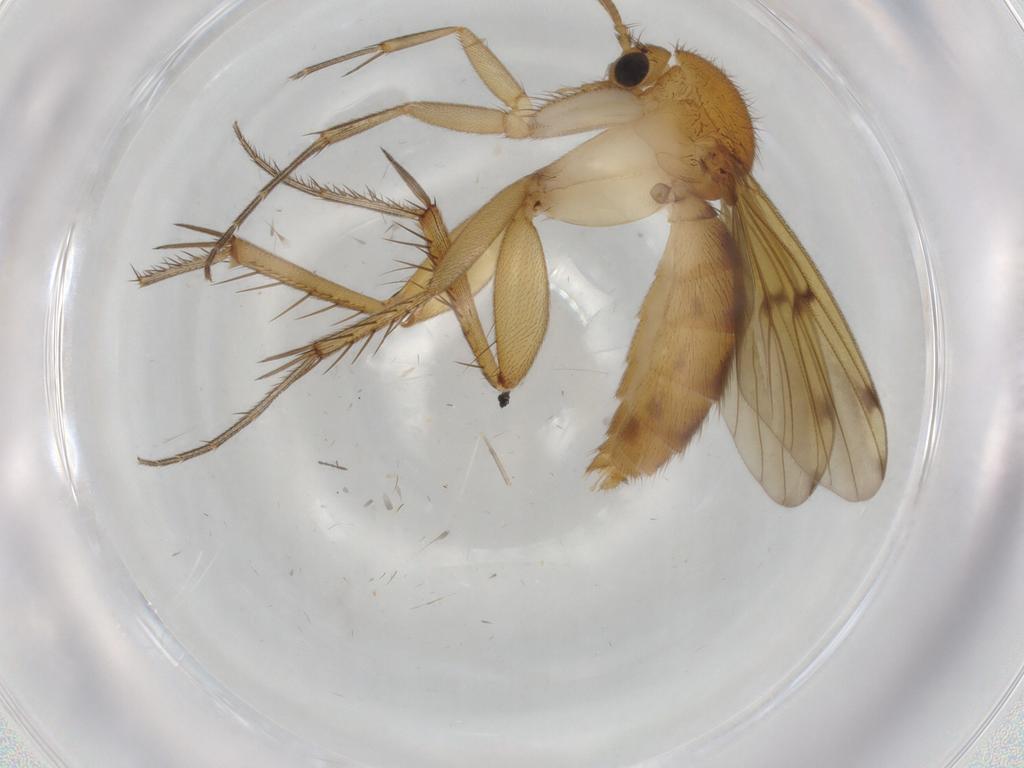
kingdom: Animalia
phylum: Arthropoda
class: Insecta
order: Diptera
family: Mycetophilidae
